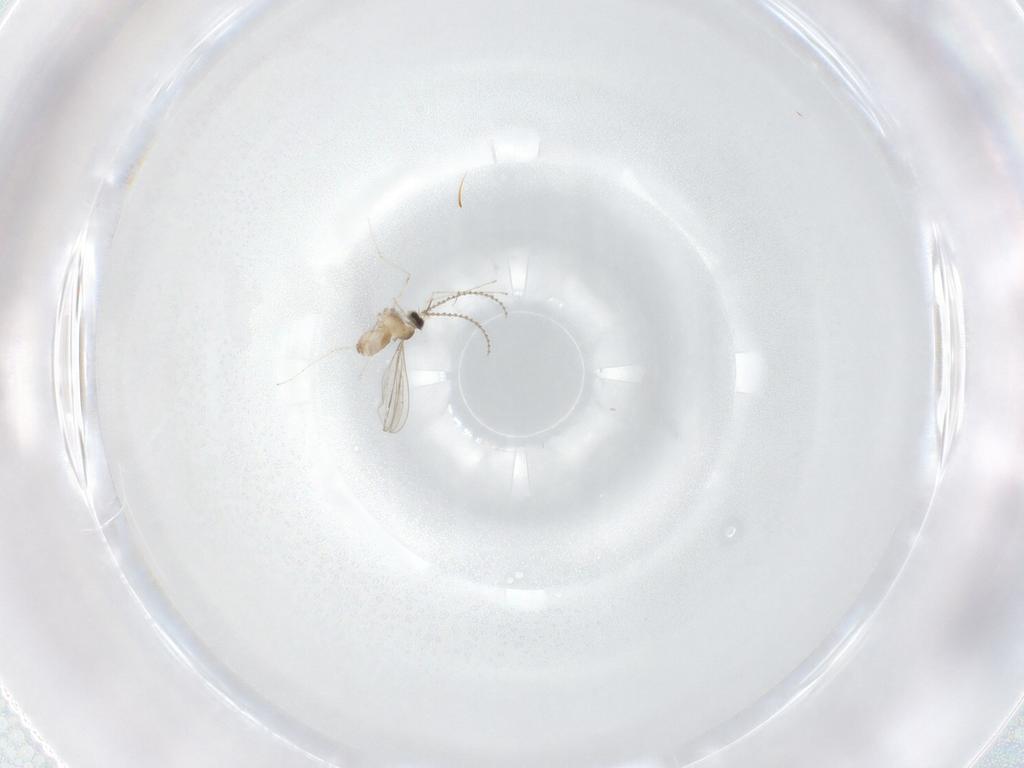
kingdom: Animalia
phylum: Arthropoda
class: Insecta
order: Diptera
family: Cecidomyiidae
